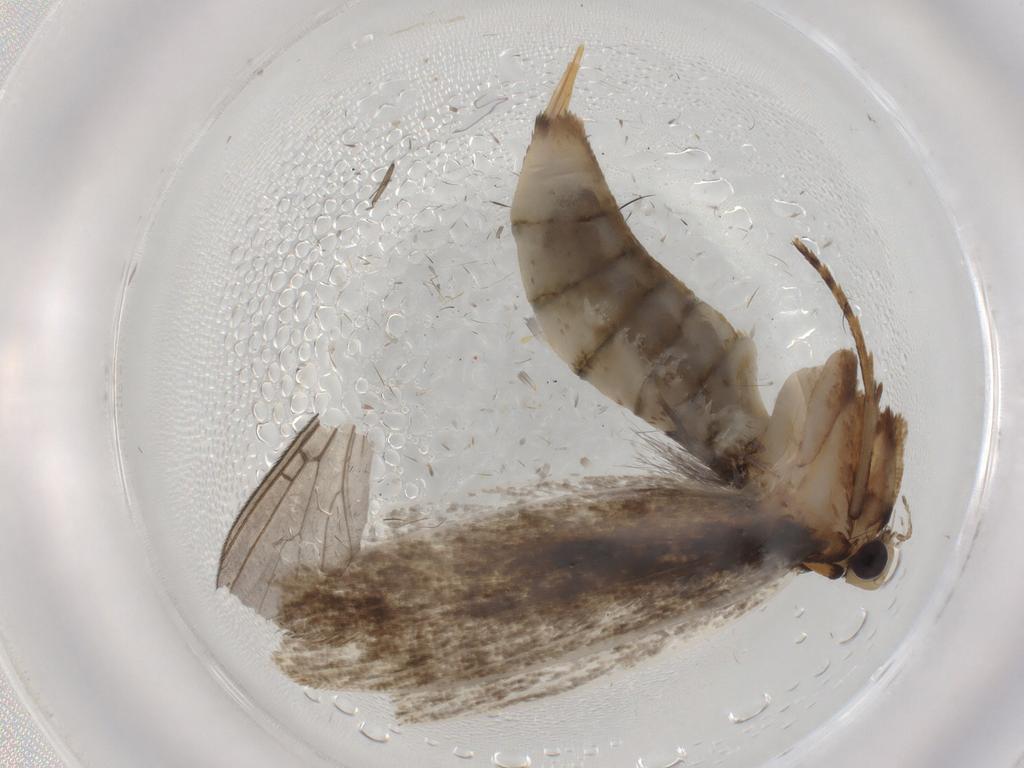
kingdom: Animalia
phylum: Arthropoda
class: Insecta
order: Lepidoptera
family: Tineidae
